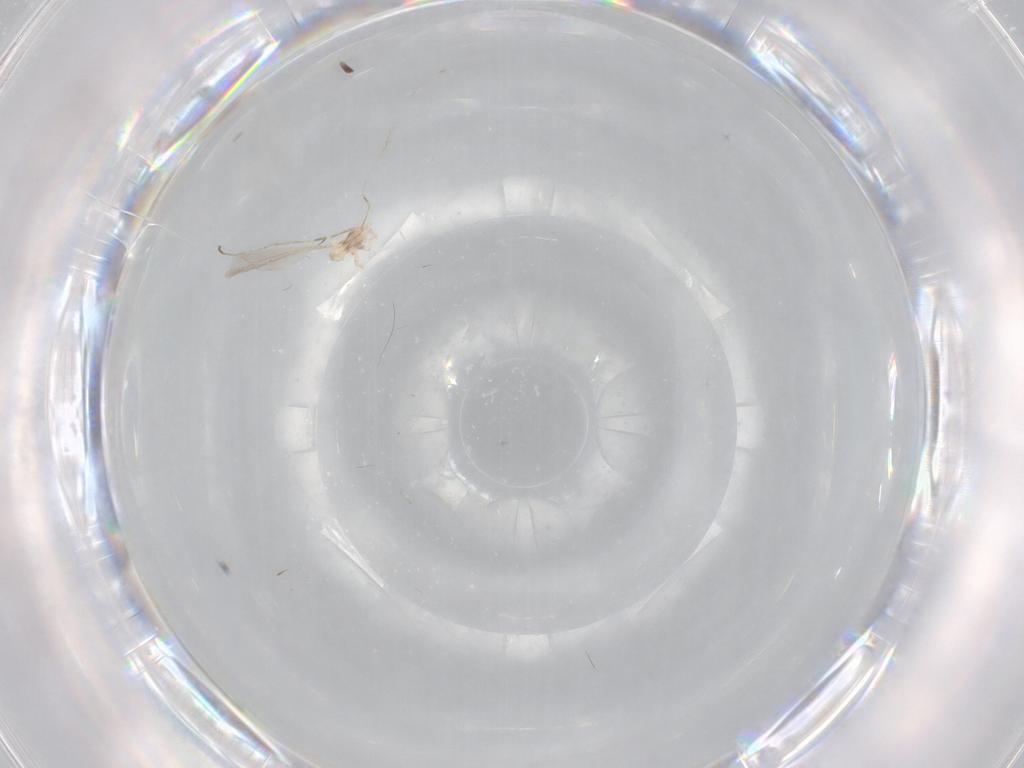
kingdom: Animalia
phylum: Arthropoda
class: Insecta
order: Diptera
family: Cecidomyiidae
